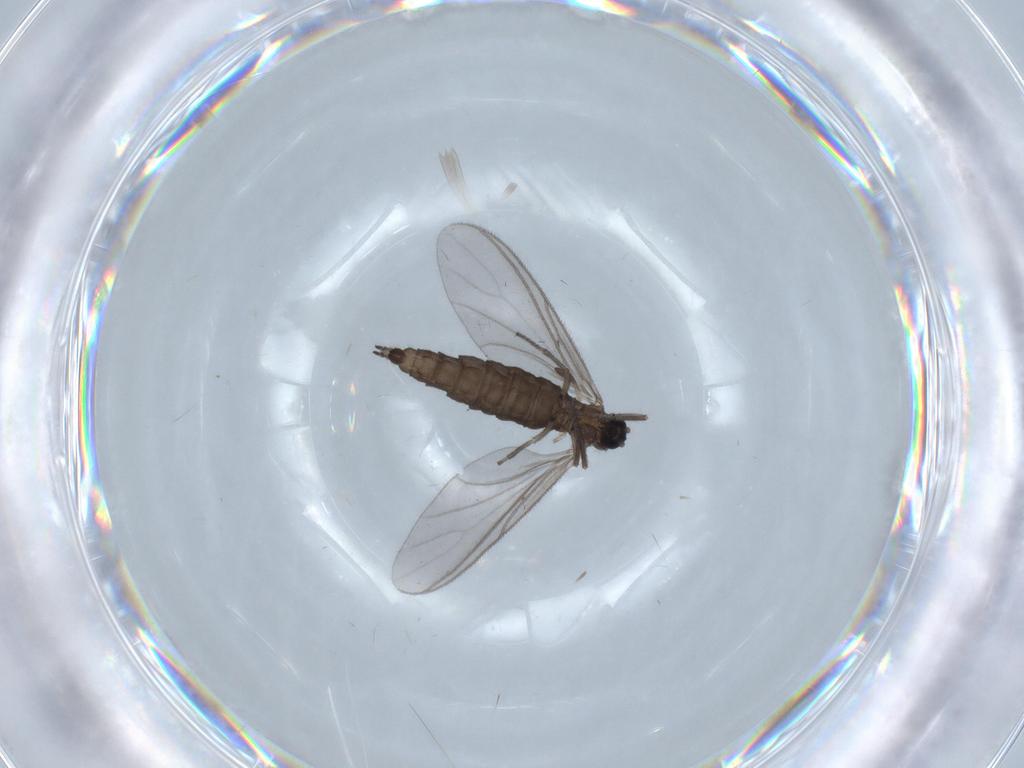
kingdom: Animalia
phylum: Arthropoda
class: Insecta
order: Diptera
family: Sciaridae
